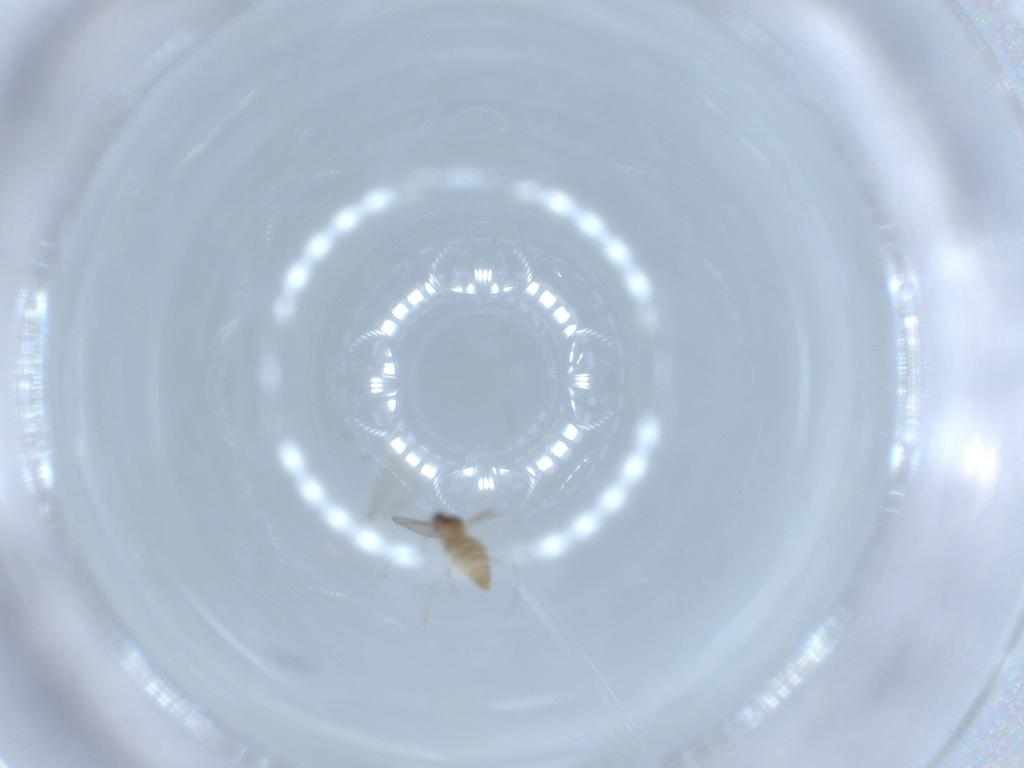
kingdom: Animalia
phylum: Arthropoda
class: Insecta
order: Diptera
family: Cecidomyiidae
